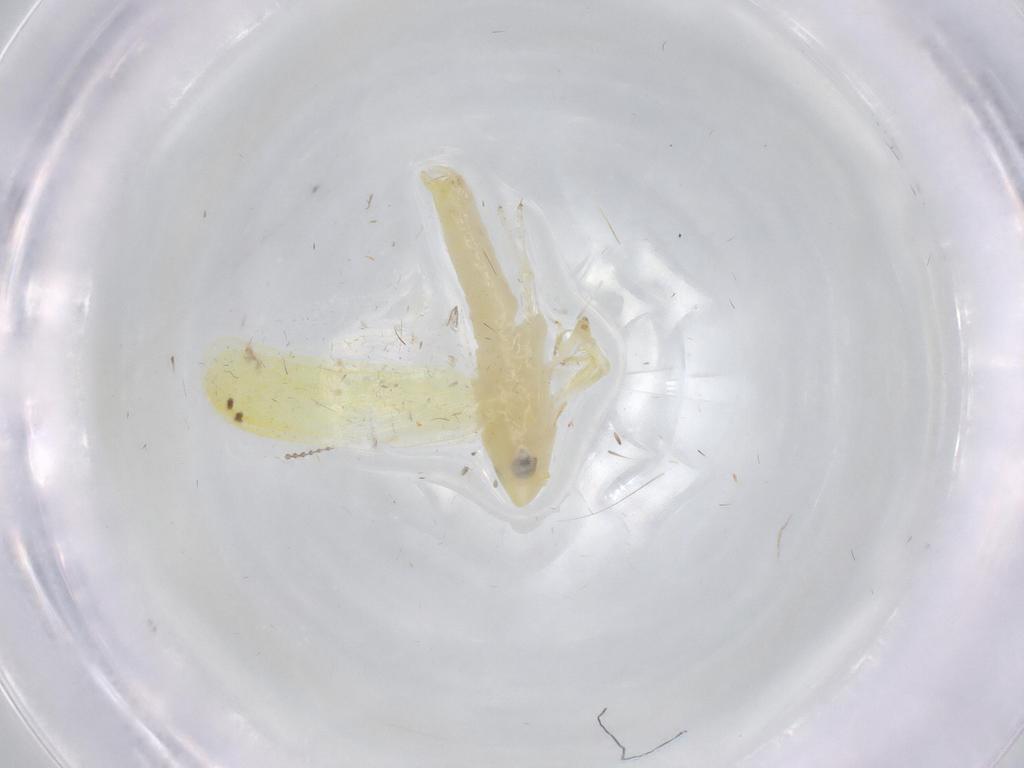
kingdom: Animalia
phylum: Arthropoda
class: Insecta
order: Hemiptera
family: Cicadellidae
